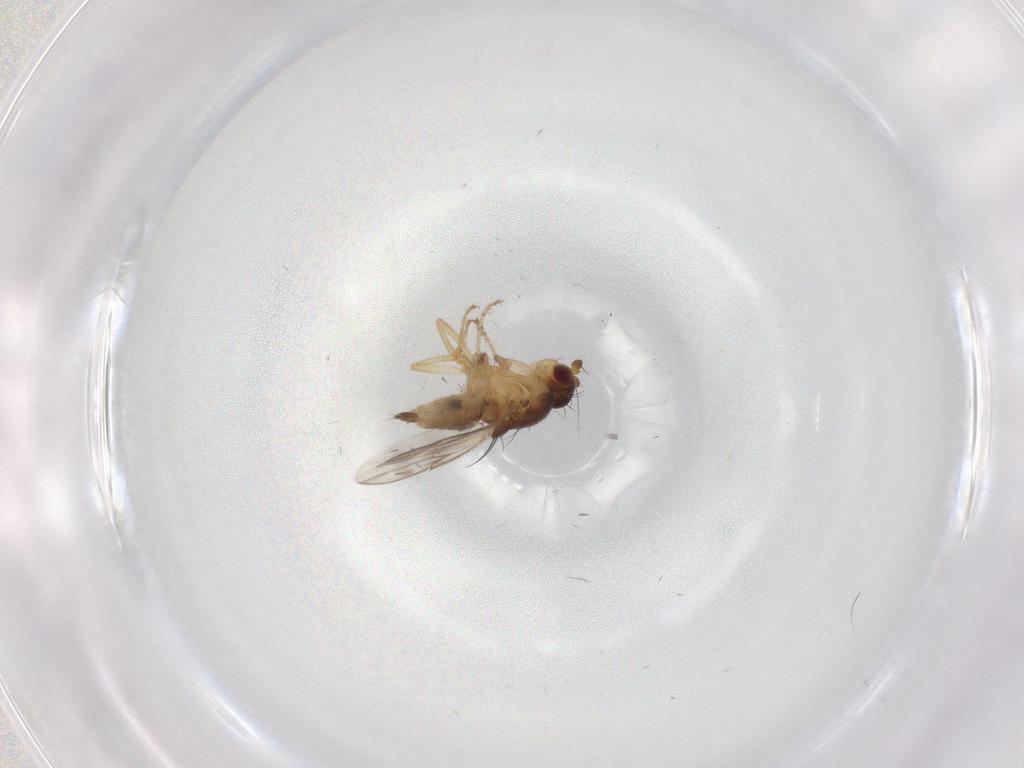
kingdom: Animalia
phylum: Arthropoda
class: Insecta
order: Diptera
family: Sphaeroceridae
